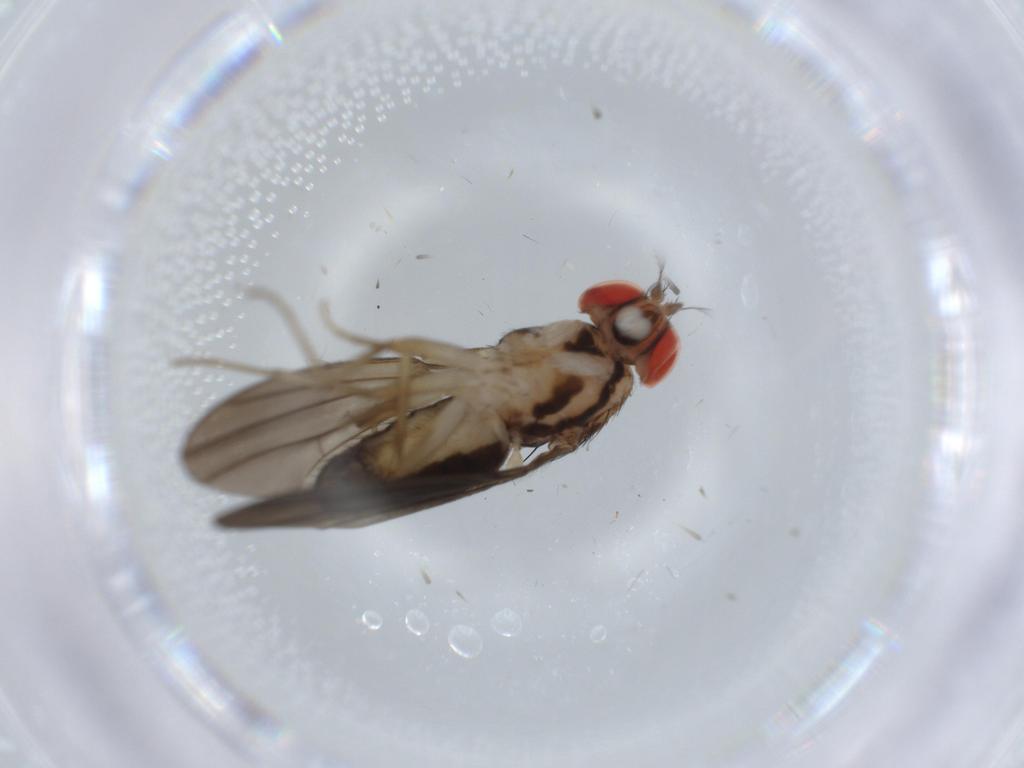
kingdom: Animalia
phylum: Arthropoda
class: Insecta
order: Diptera
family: Drosophilidae
